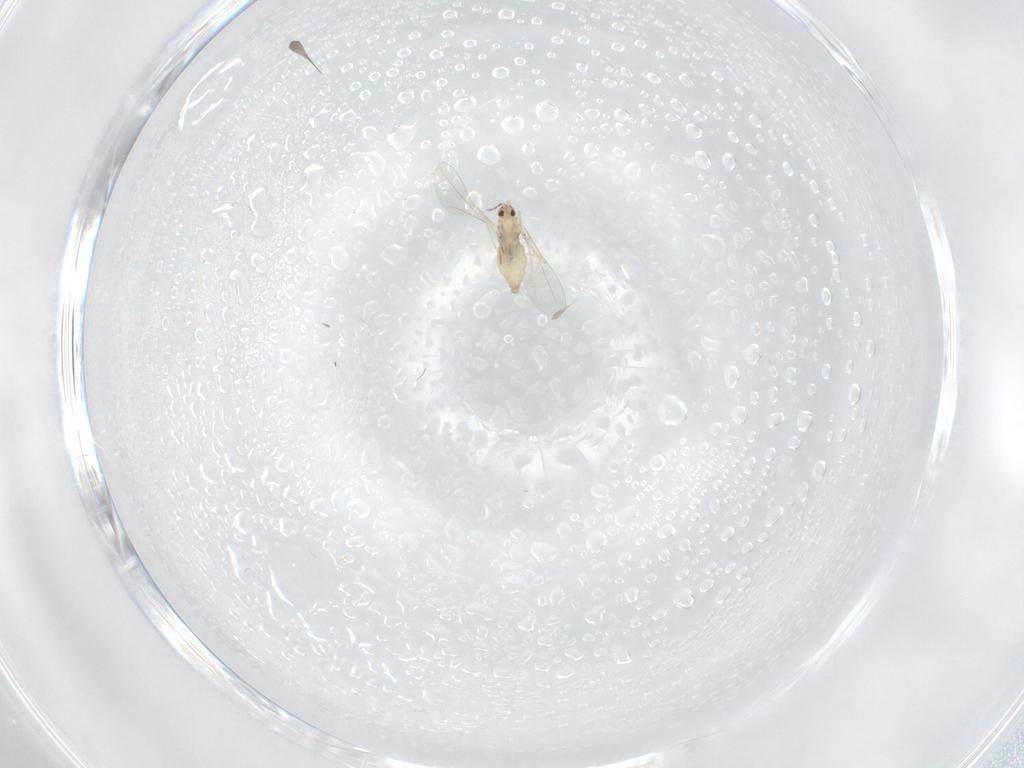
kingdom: Animalia
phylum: Arthropoda
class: Insecta
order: Diptera
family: Cecidomyiidae
